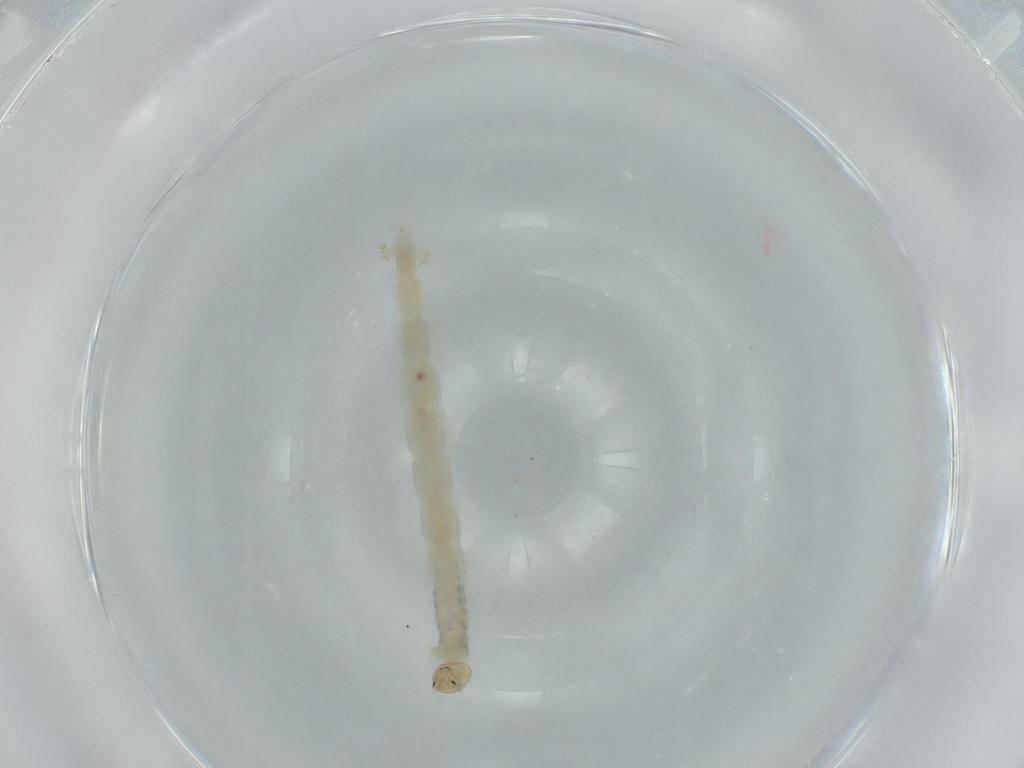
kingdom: Animalia
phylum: Arthropoda
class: Insecta
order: Diptera
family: Chironomidae
